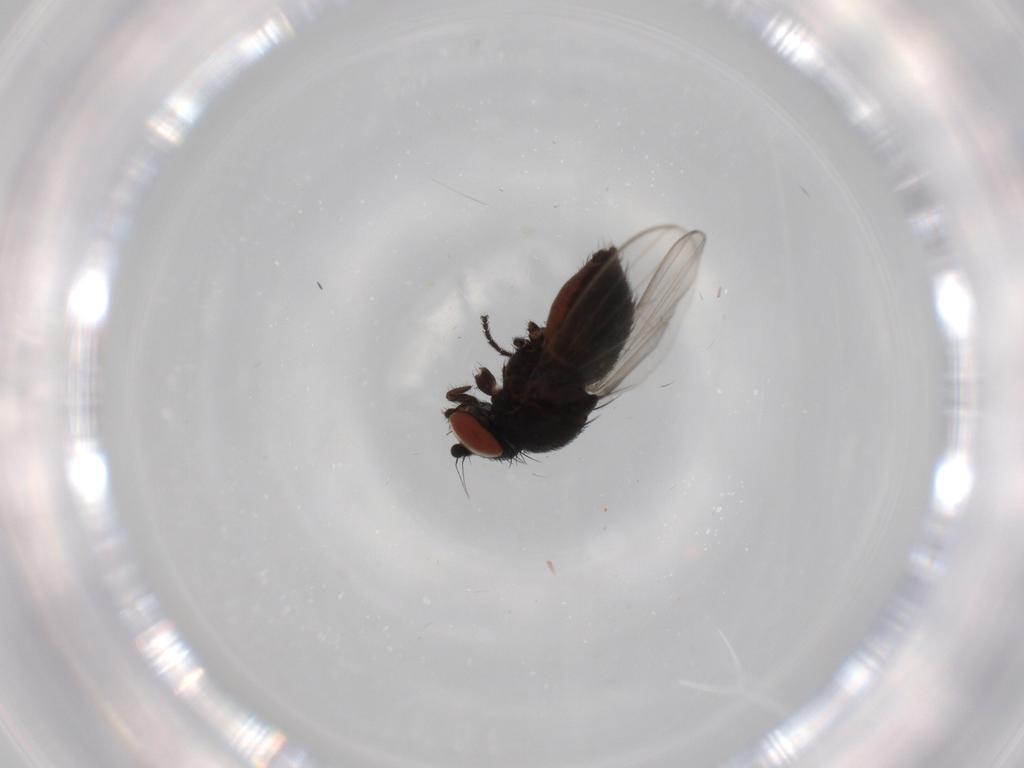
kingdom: Animalia
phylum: Arthropoda
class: Insecta
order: Diptera
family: Milichiidae
